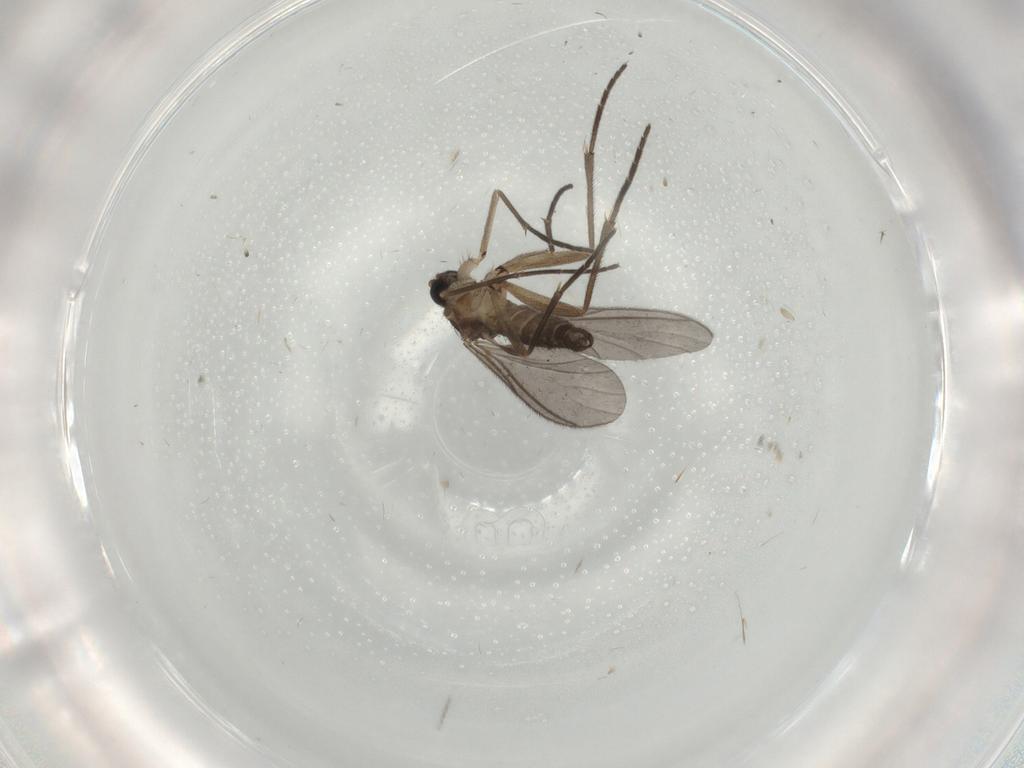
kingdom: Animalia
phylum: Arthropoda
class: Insecta
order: Diptera
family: Sciaridae
